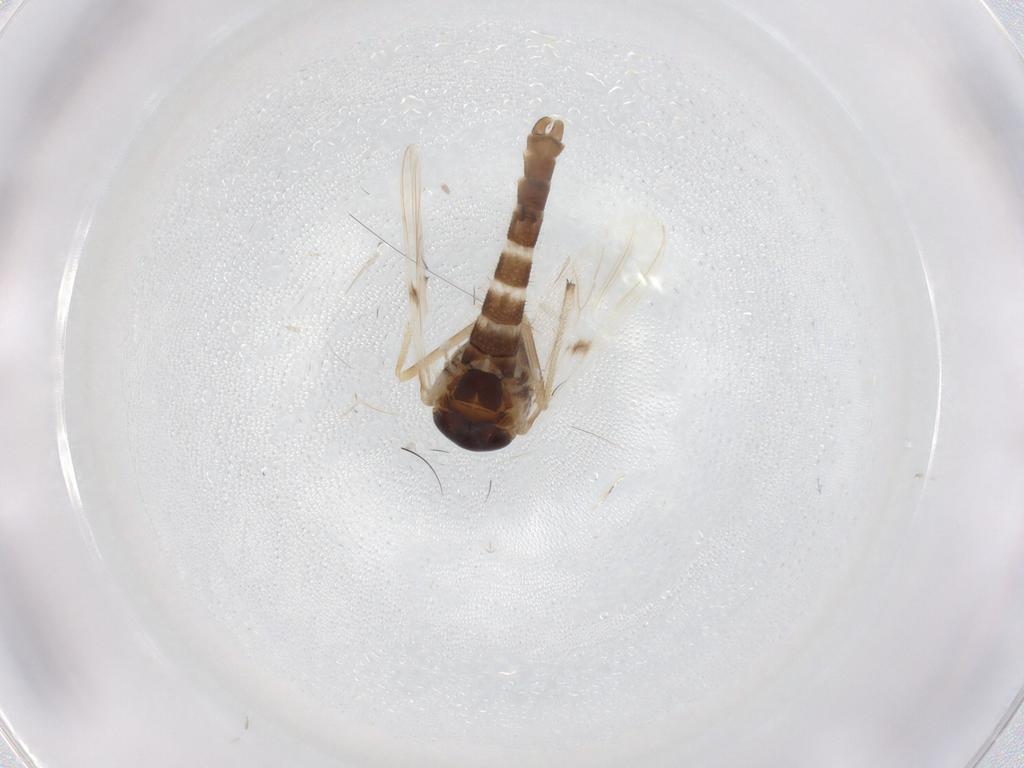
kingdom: Animalia
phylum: Arthropoda
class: Insecta
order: Diptera
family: Chironomidae
